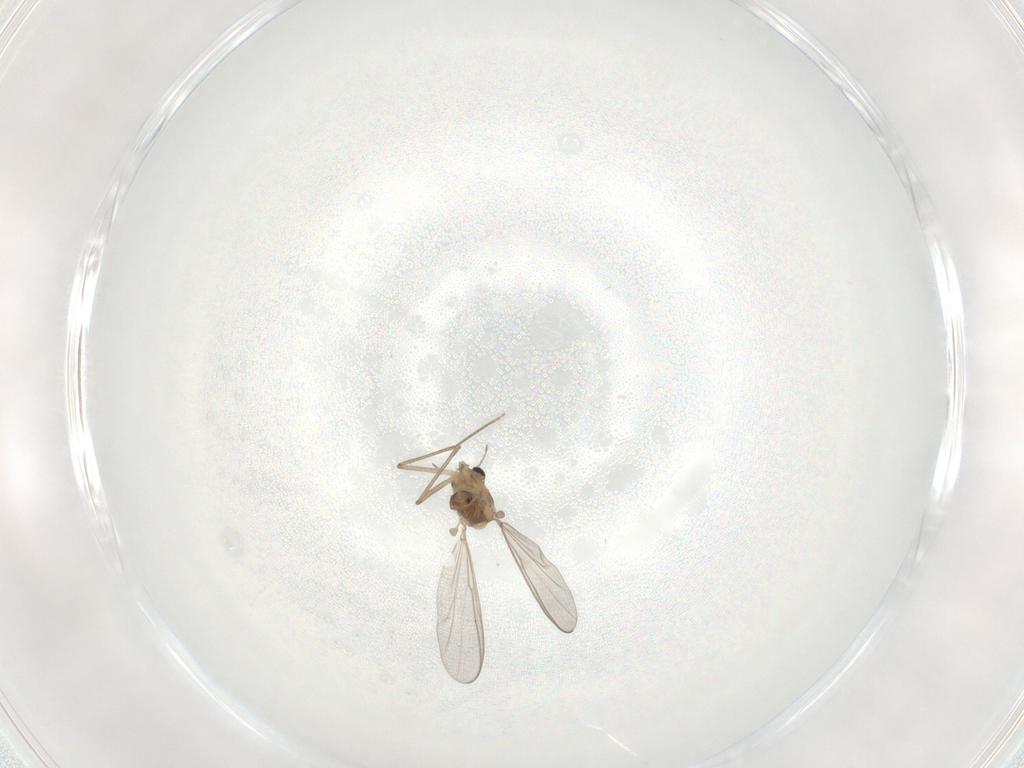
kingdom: Animalia
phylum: Arthropoda
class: Insecta
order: Diptera
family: Chironomidae
